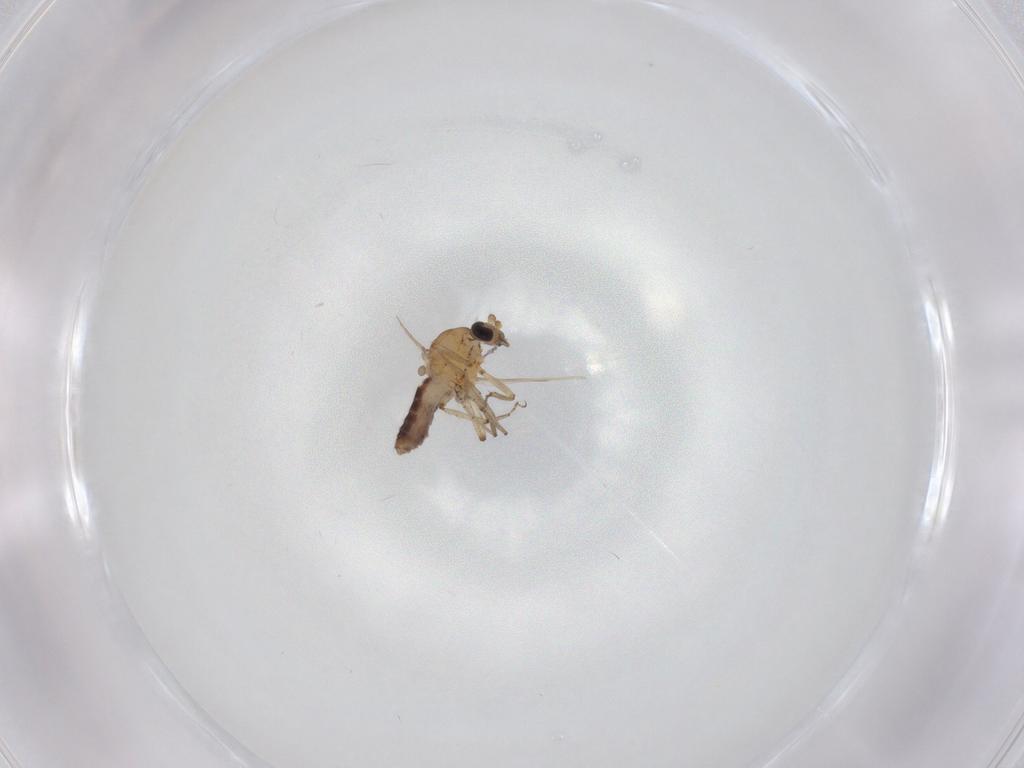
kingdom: Animalia
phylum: Arthropoda
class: Insecta
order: Diptera
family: Ceratopogonidae
